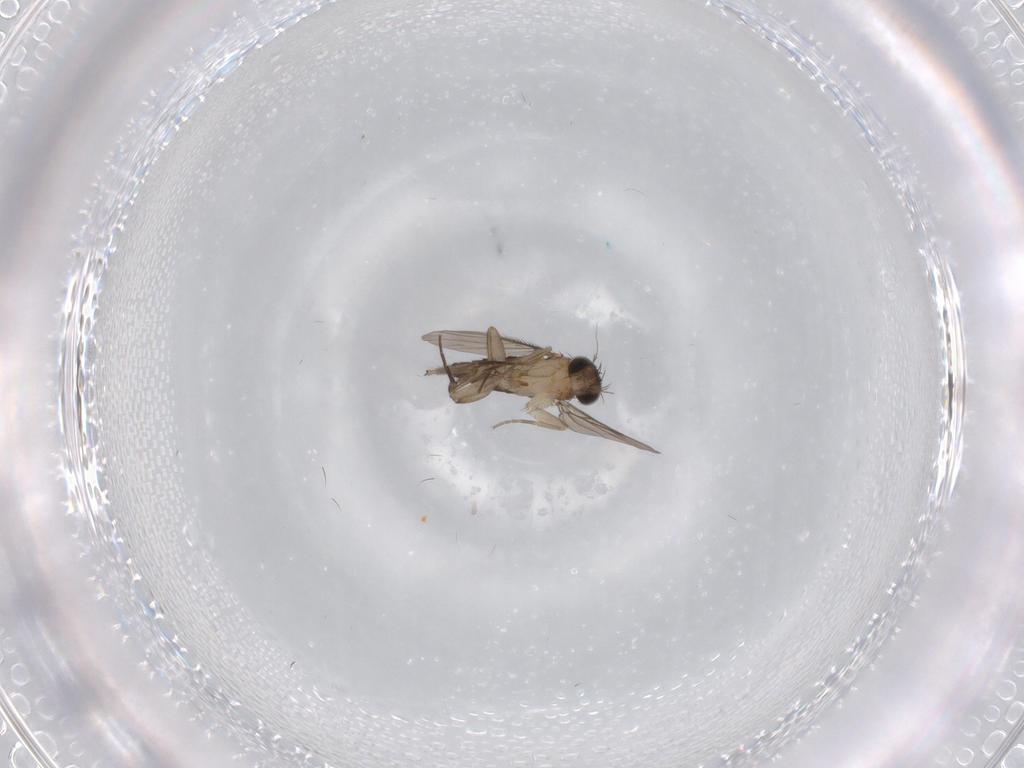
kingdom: Animalia
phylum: Arthropoda
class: Insecta
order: Diptera
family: Phoridae
